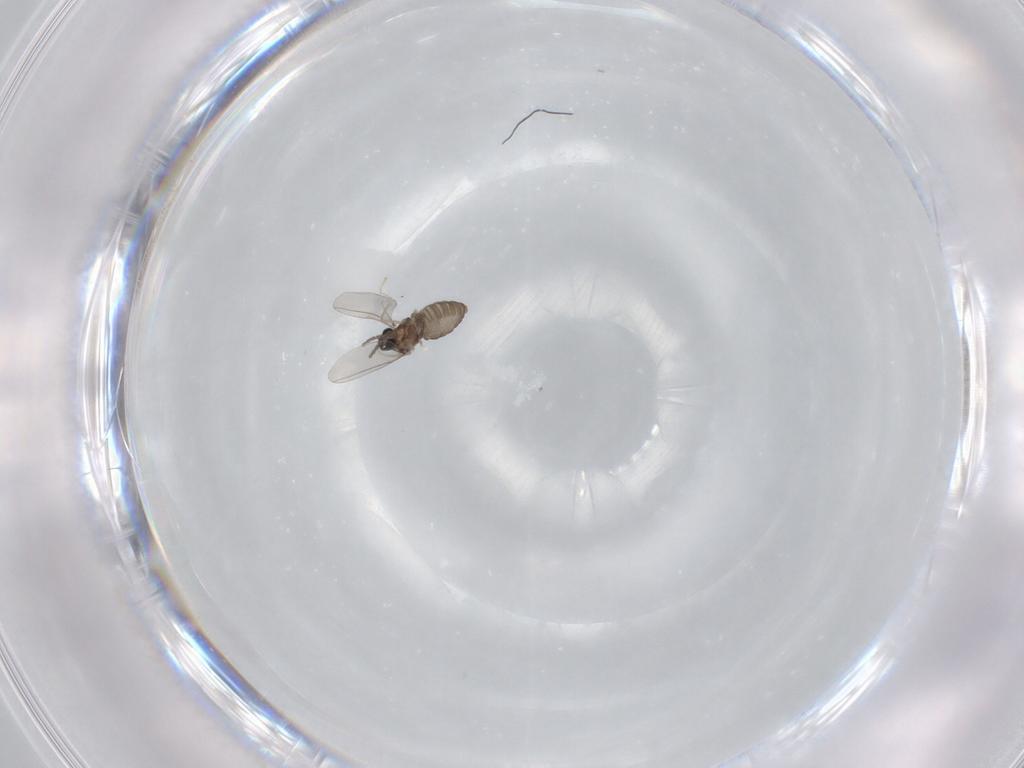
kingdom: Animalia
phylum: Arthropoda
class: Insecta
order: Diptera
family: Cecidomyiidae
